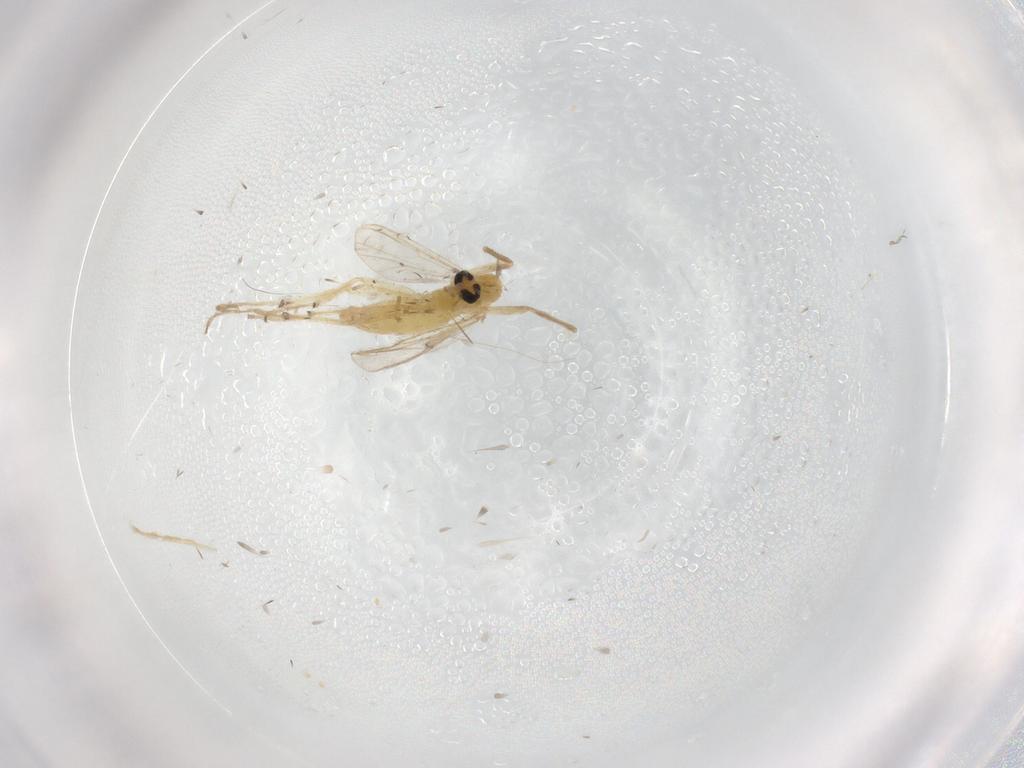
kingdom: Animalia
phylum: Arthropoda
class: Insecta
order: Diptera
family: Chironomidae
